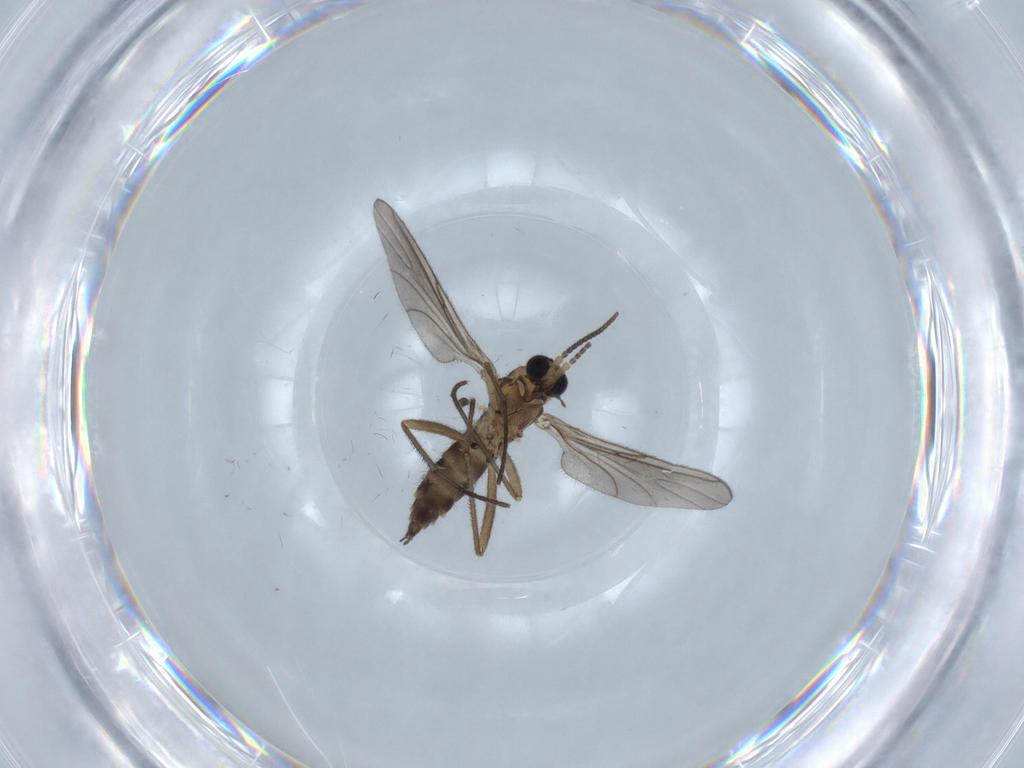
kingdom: Animalia
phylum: Arthropoda
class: Insecta
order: Diptera
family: Sciaridae
